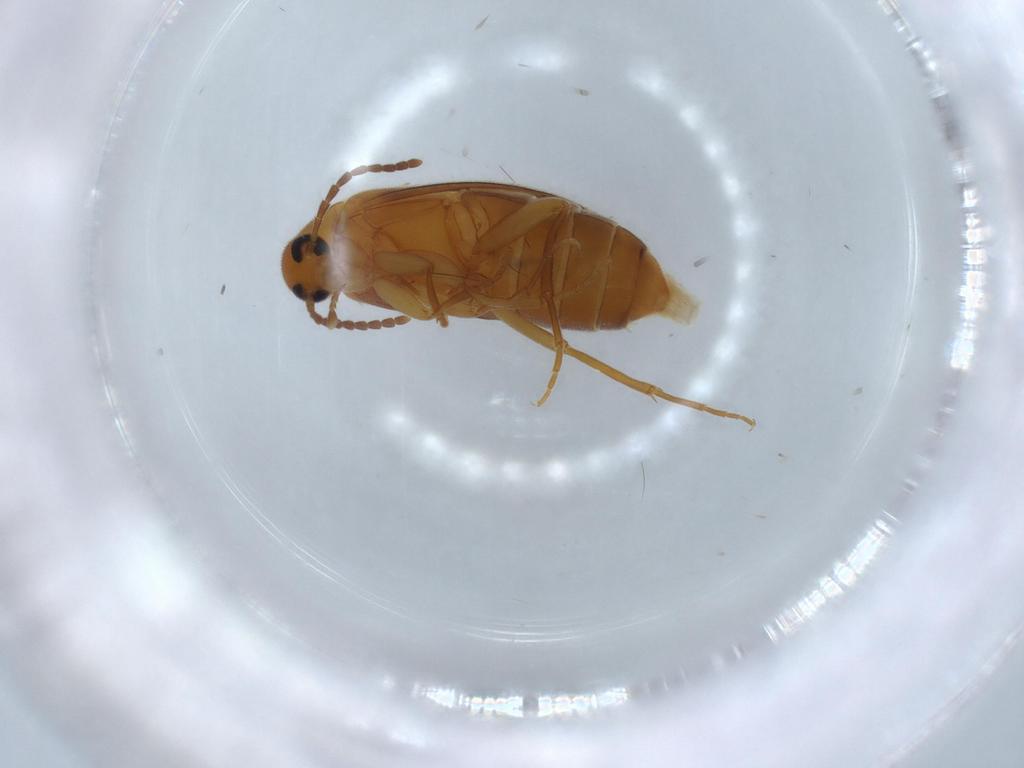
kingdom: Animalia
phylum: Arthropoda
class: Insecta
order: Coleoptera
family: Scraptiidae
